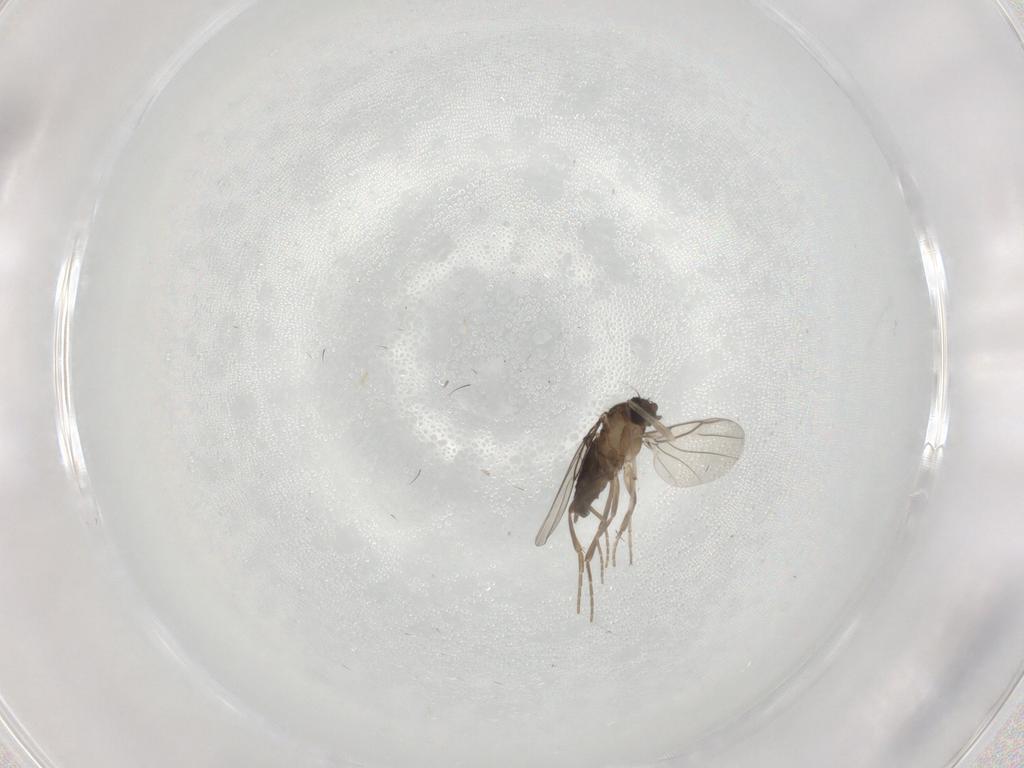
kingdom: Animalia
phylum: Arthropoda
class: Insecta
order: Diptera
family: Phoridae
